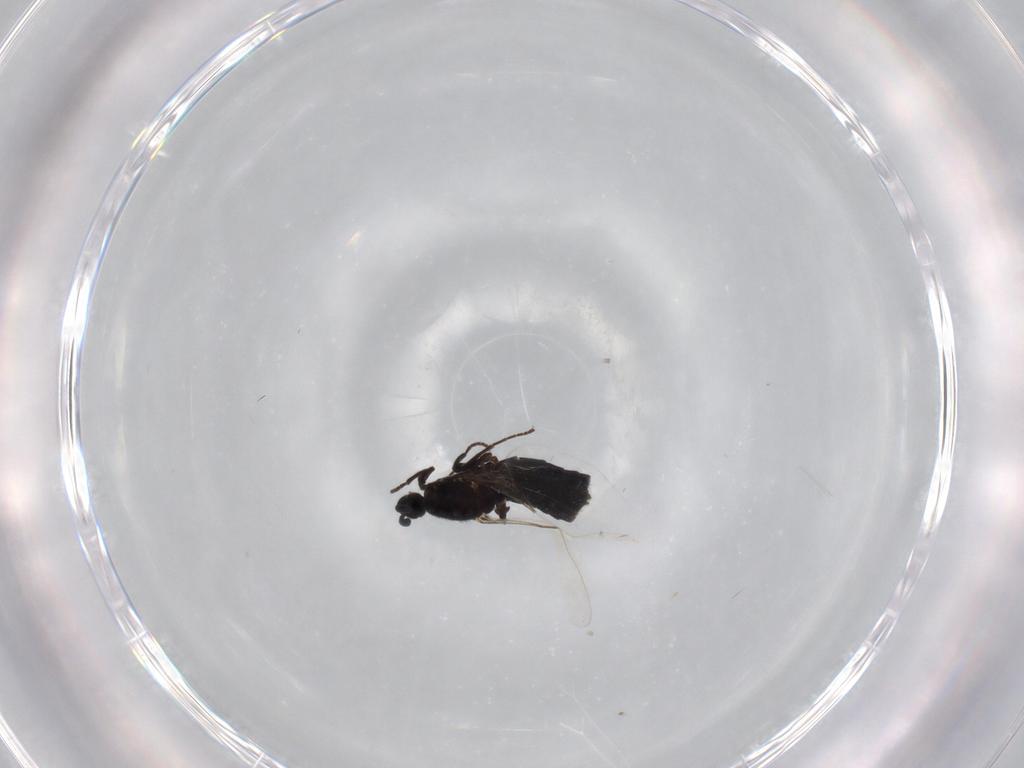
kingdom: Animalia
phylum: Arthropoda
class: Insecta
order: Diptera
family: Scatopsidae
